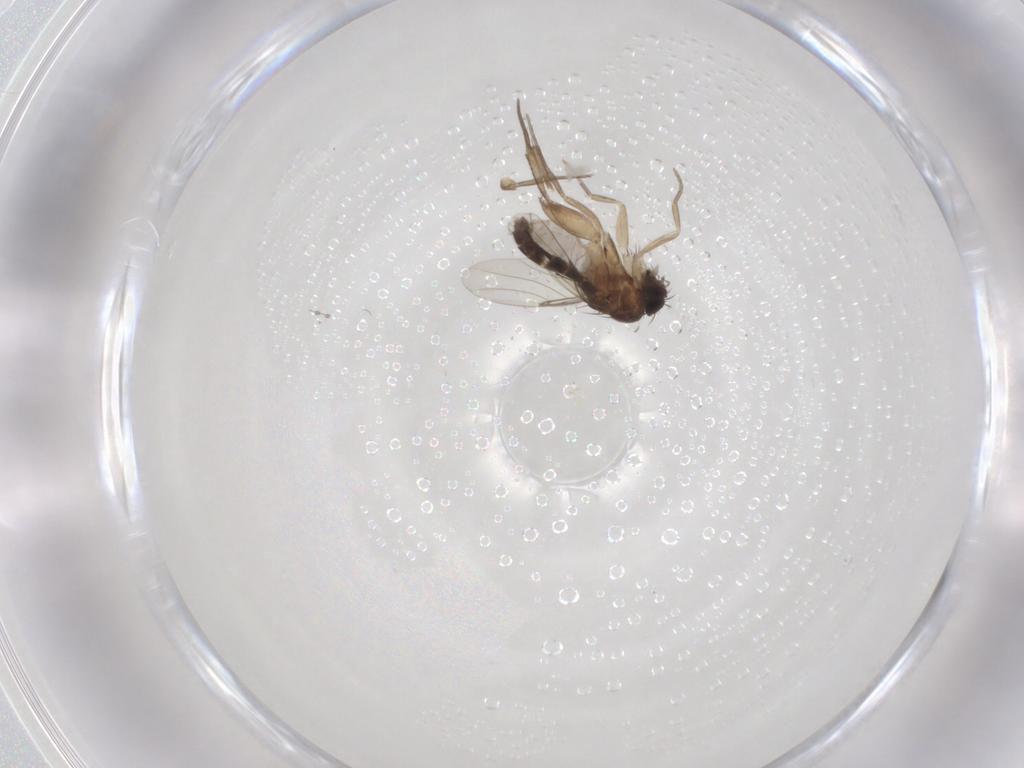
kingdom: Animalia
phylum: Arthropoda
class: Insecta
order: Diptera
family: Phoridae
